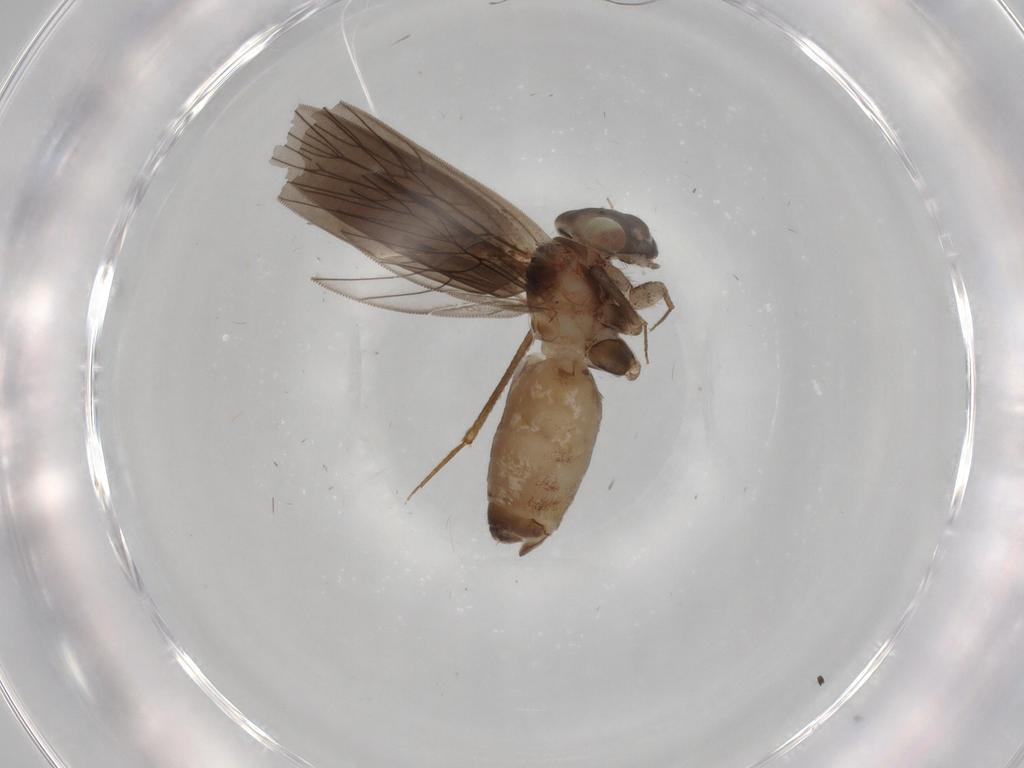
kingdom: Animalia
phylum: Arthropoda
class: Insecta
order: Psocodea
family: Lepidopsocidae
